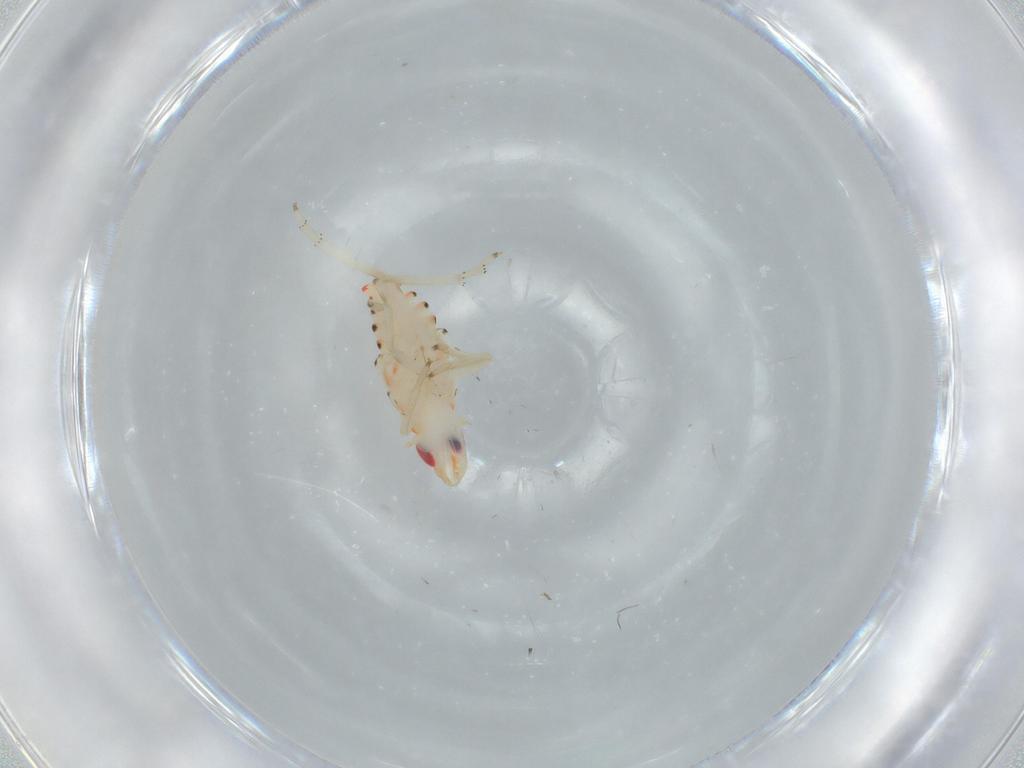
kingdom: Animalia
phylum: Arthropoda
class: Insecta
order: Hemiptera
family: Tropiduchidae
